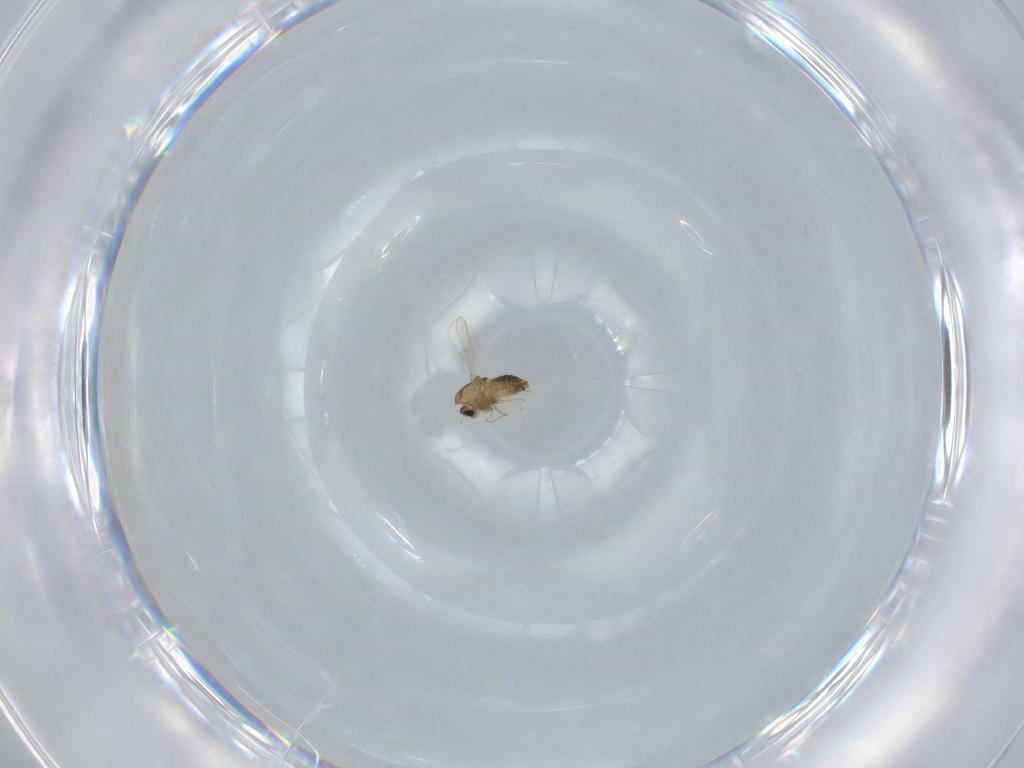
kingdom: Animalia
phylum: Arthropoda
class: Insecta
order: Diptera
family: Chironomidae
